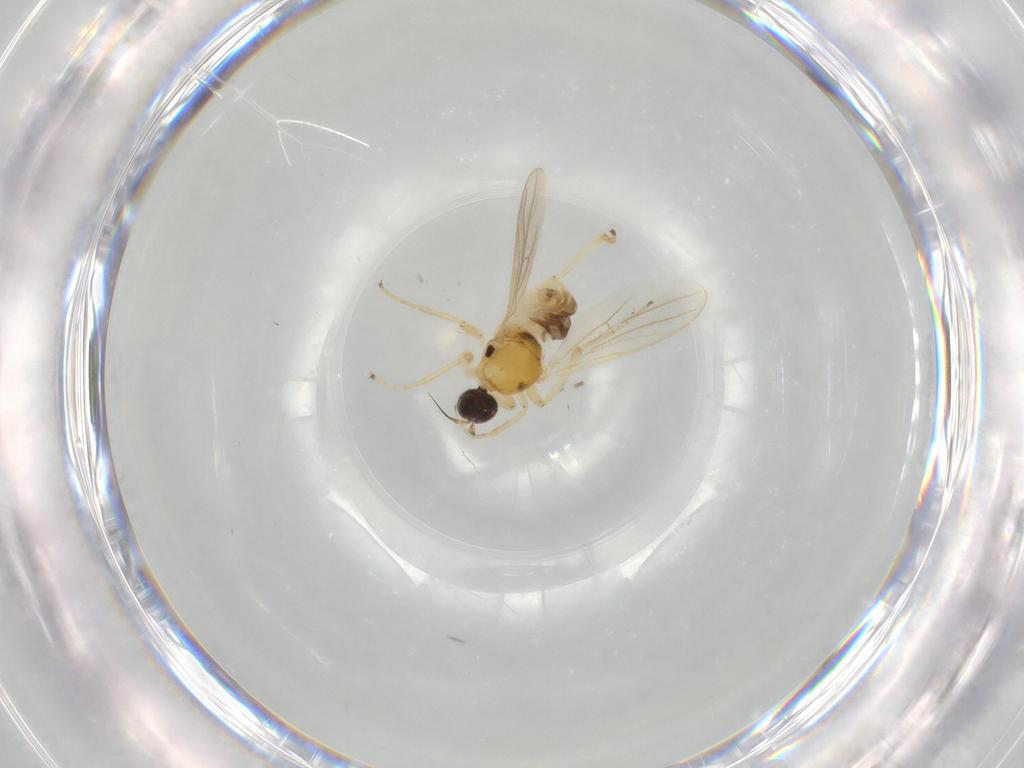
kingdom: Animalia
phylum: Arthropoda
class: Insecta
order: Diptera
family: Hybotidae
